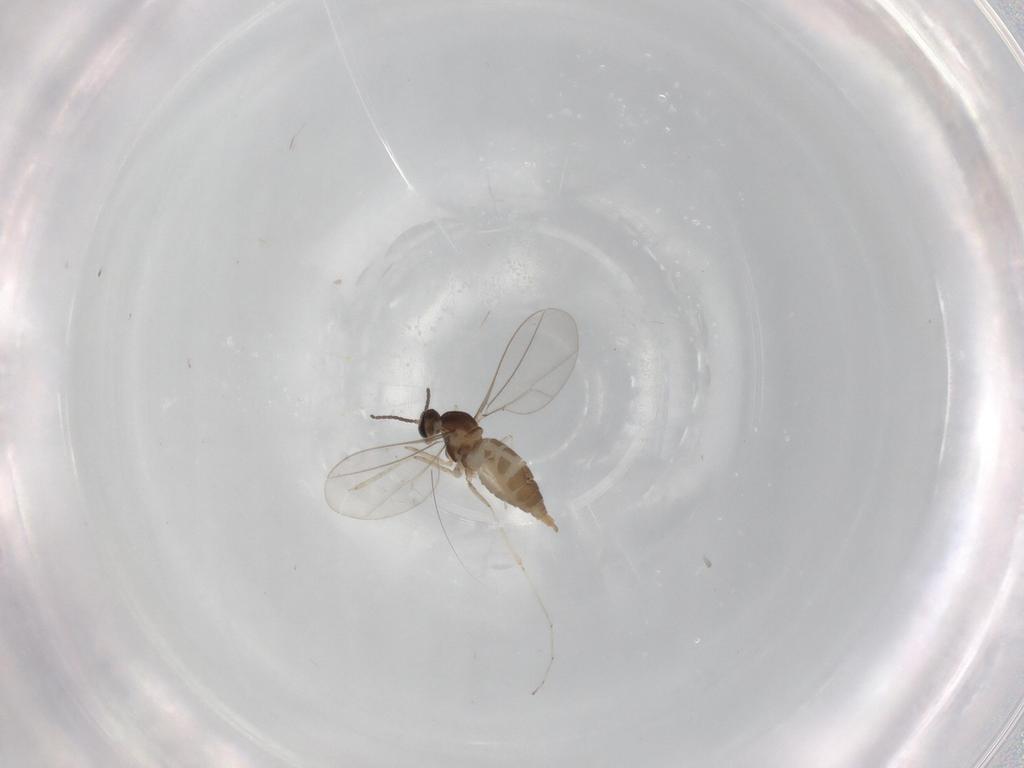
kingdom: Animalia
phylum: Arthropoda
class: Insecta
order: Diptera
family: Cecidomyiidae
